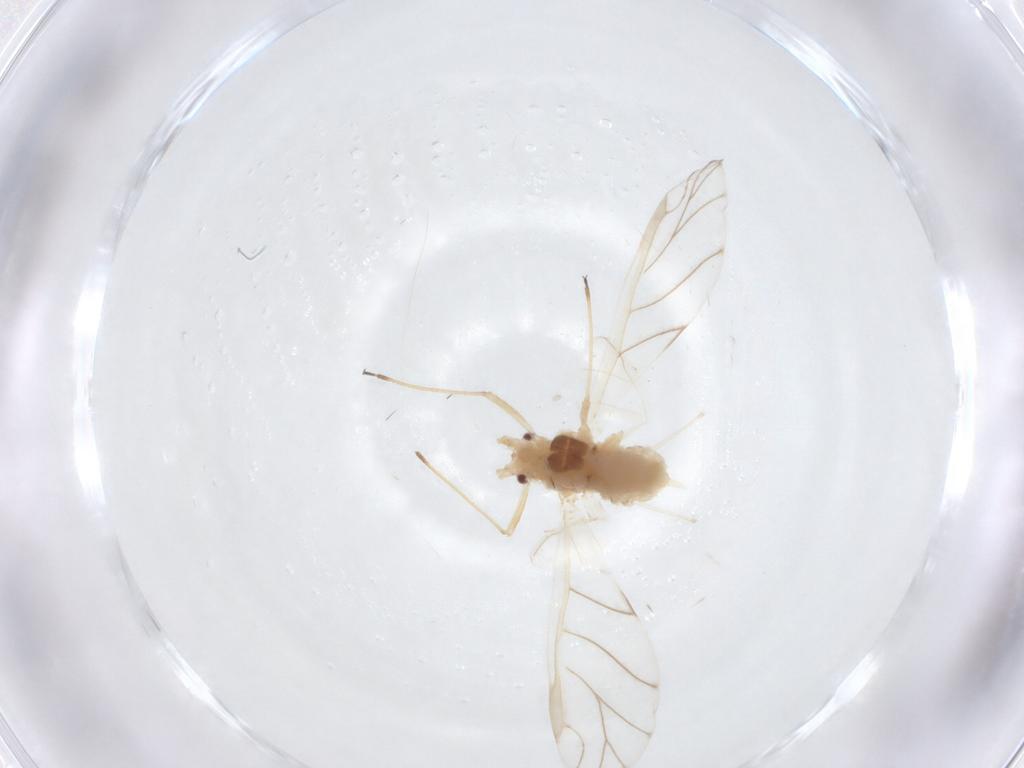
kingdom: Animalia
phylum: Arthropoda
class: Insecta
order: Hemiptera
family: Aphididae
